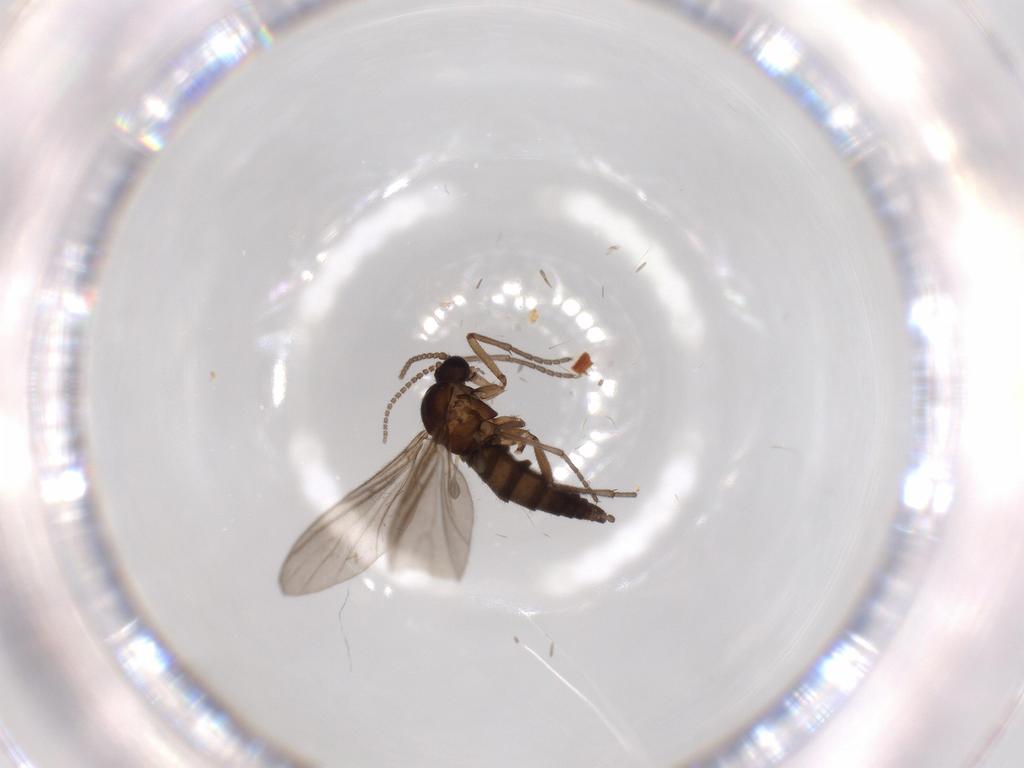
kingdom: Animalia
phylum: Arthropoda
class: Insecta
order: Diptera
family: Sciaridae
